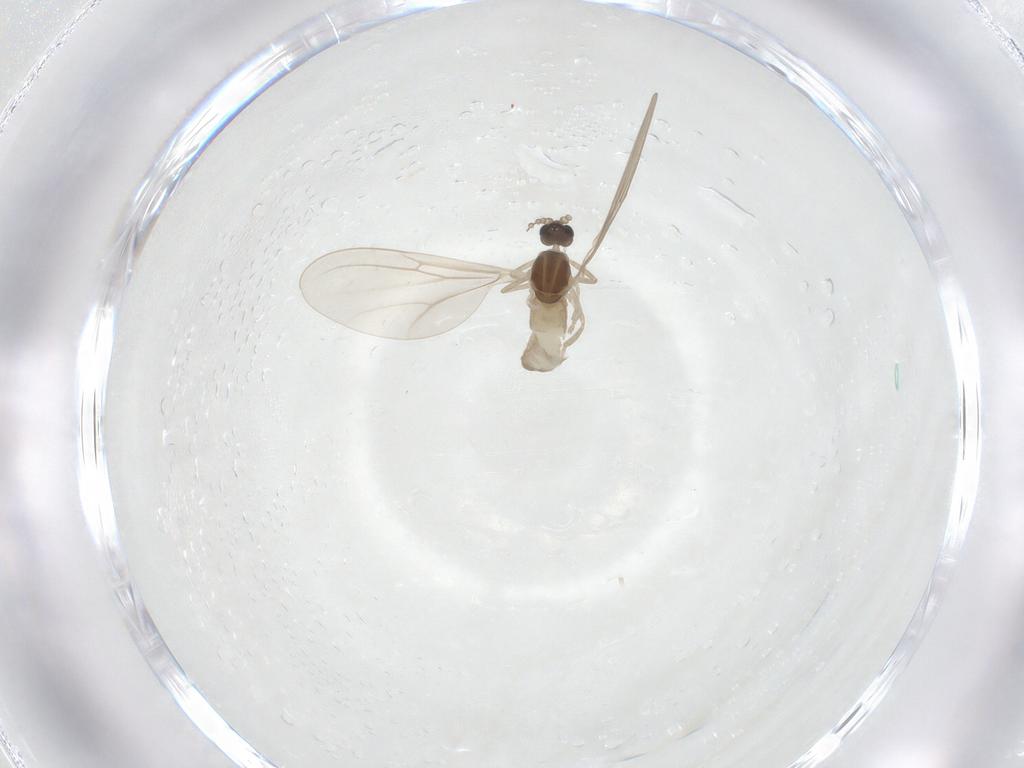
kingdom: Animalia
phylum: Arthropoda
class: Insecta
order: Diptera
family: Cecidomyiidae
